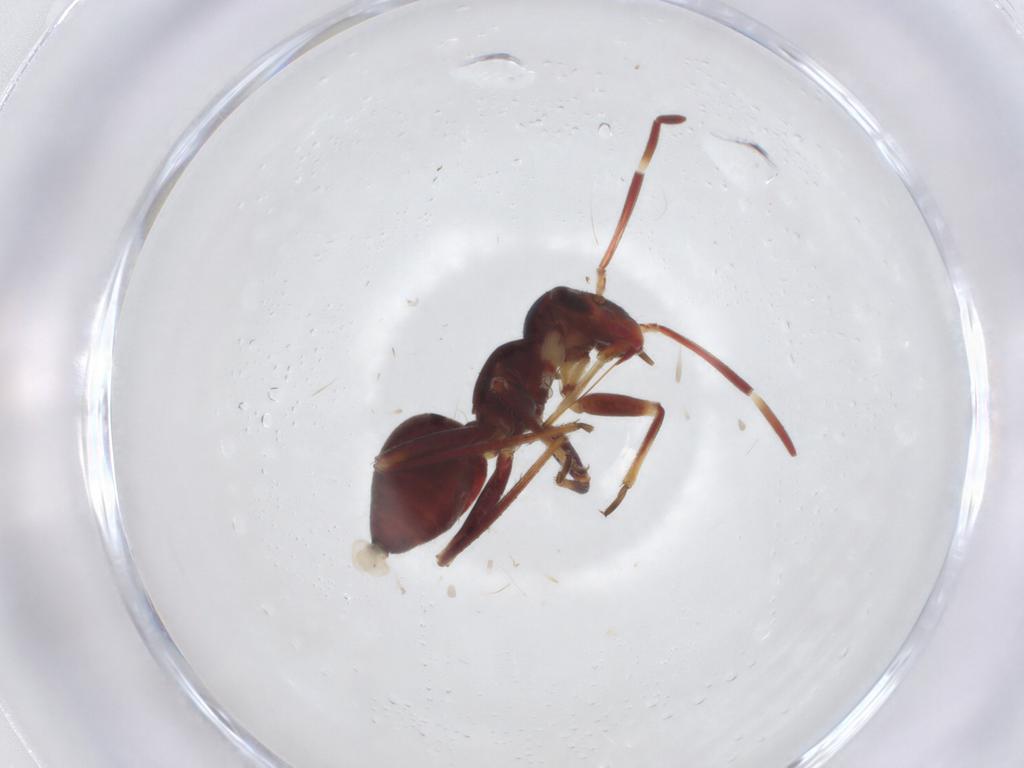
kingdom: Animalia
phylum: Arthropoda
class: Insecta
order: Hemiptera
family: Miridae
